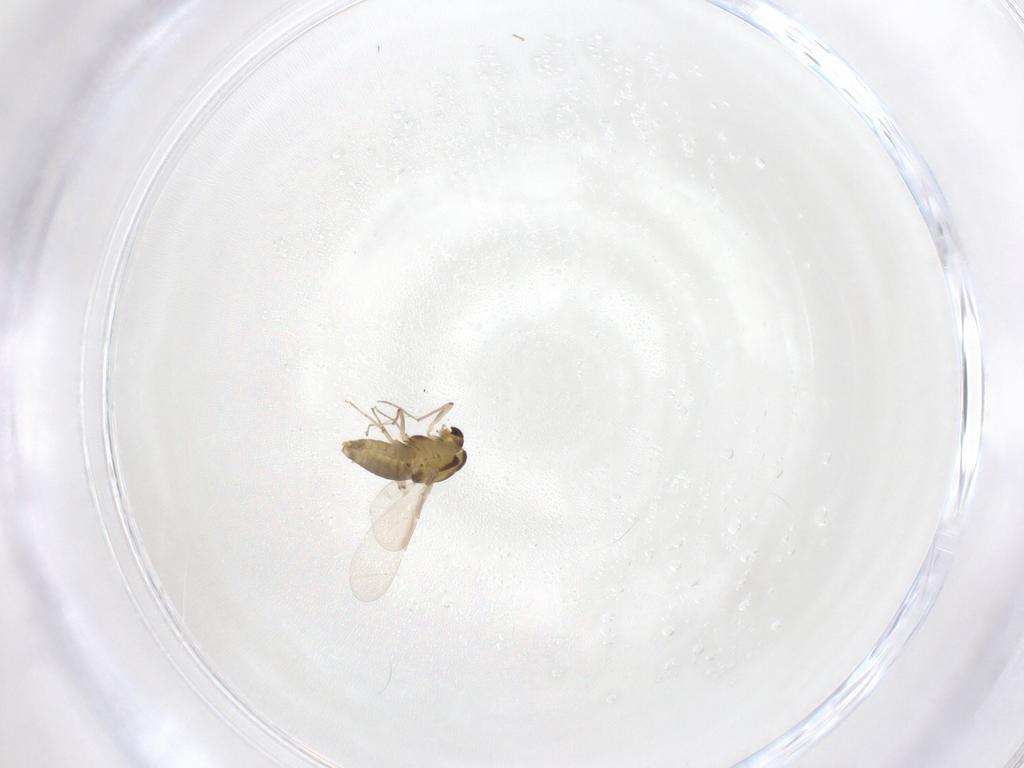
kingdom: Animalia
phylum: Arthropoda
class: Insecta
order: Diptera
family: Chironomidae
